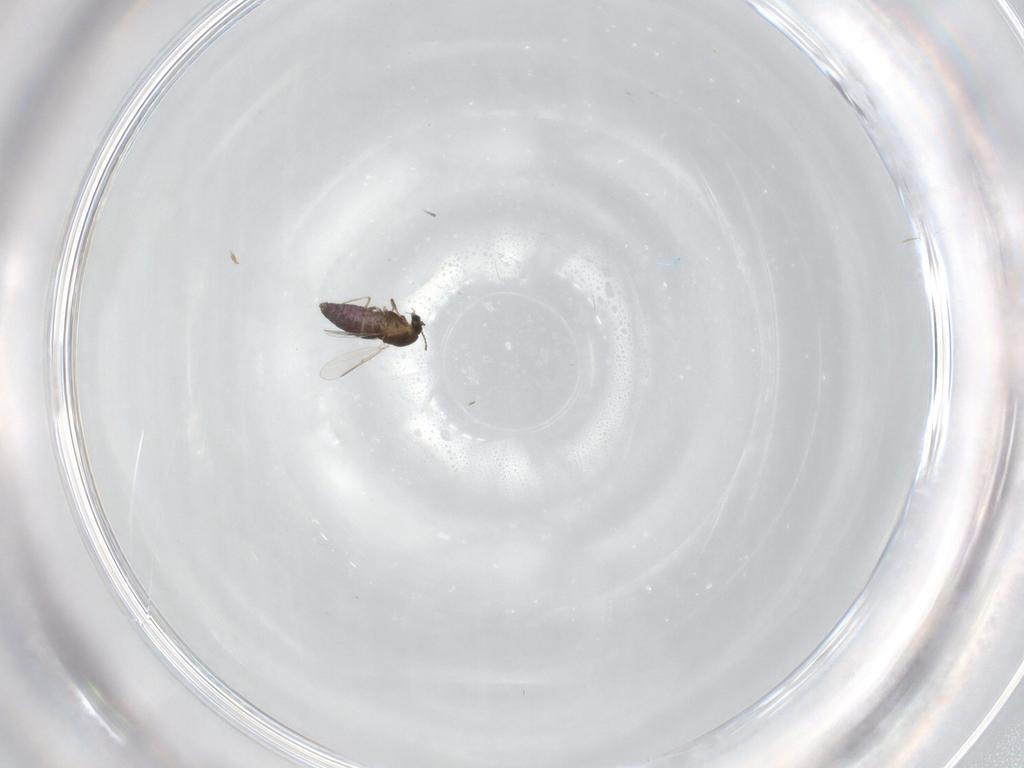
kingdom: Animalia
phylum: Arthropoda
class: Insecta
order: Diptera
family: Chironomidae
